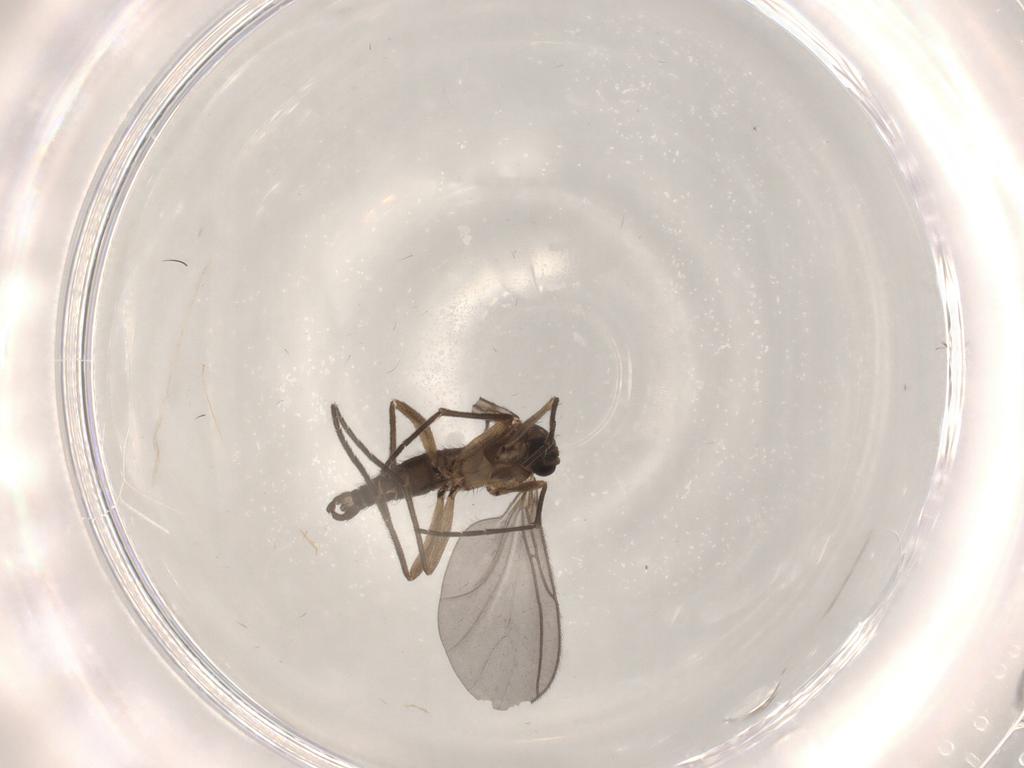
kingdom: Animalia
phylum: Arthropoda
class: Insecta
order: Diptera
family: Sciaridae
